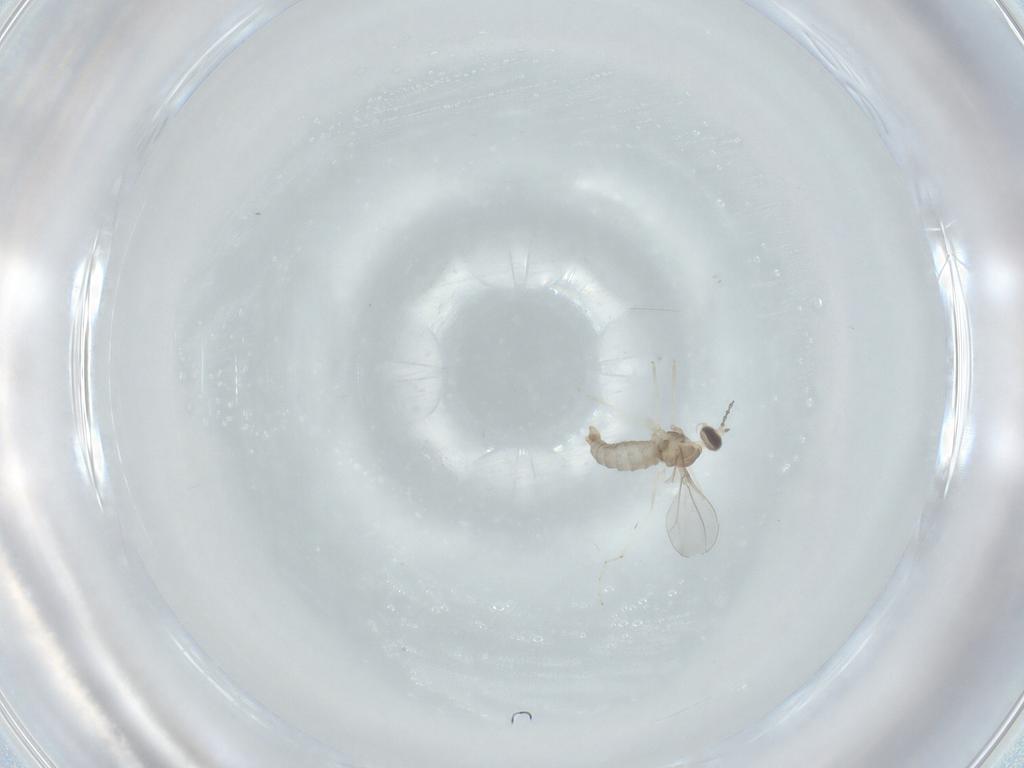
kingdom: Animalia
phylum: Arthropoda
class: Insecta
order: Diptera
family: Cecidomyiidae
